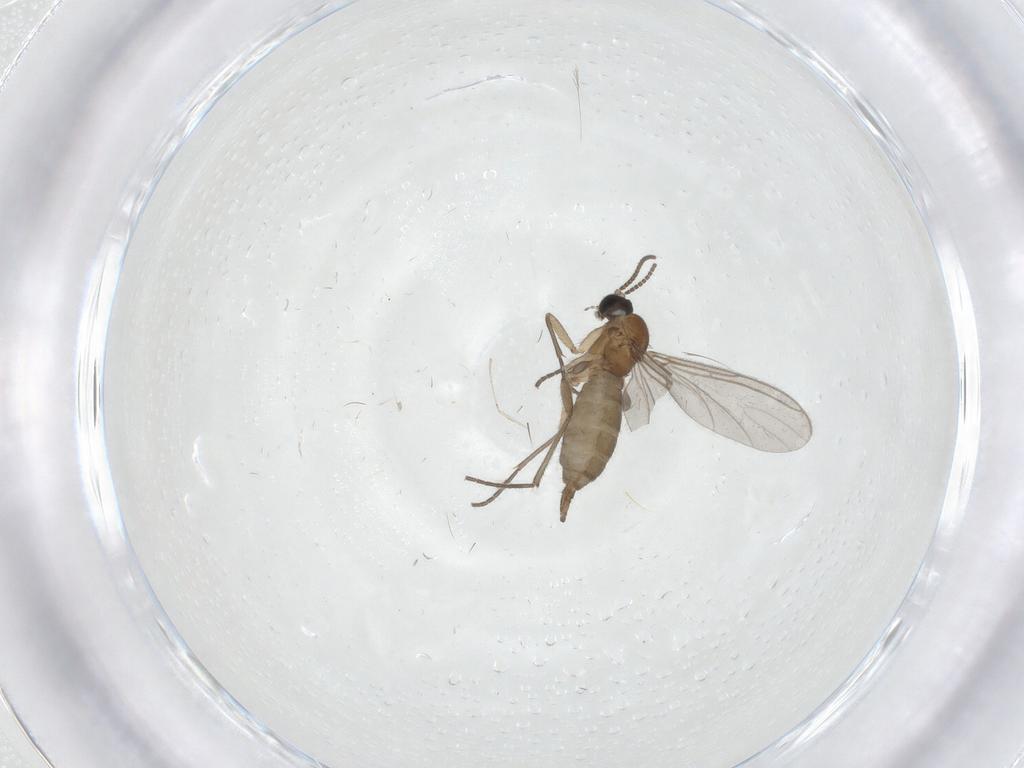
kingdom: Animalia
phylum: Arthropoda
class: Insecta
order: Diptera
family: Sciaridae
